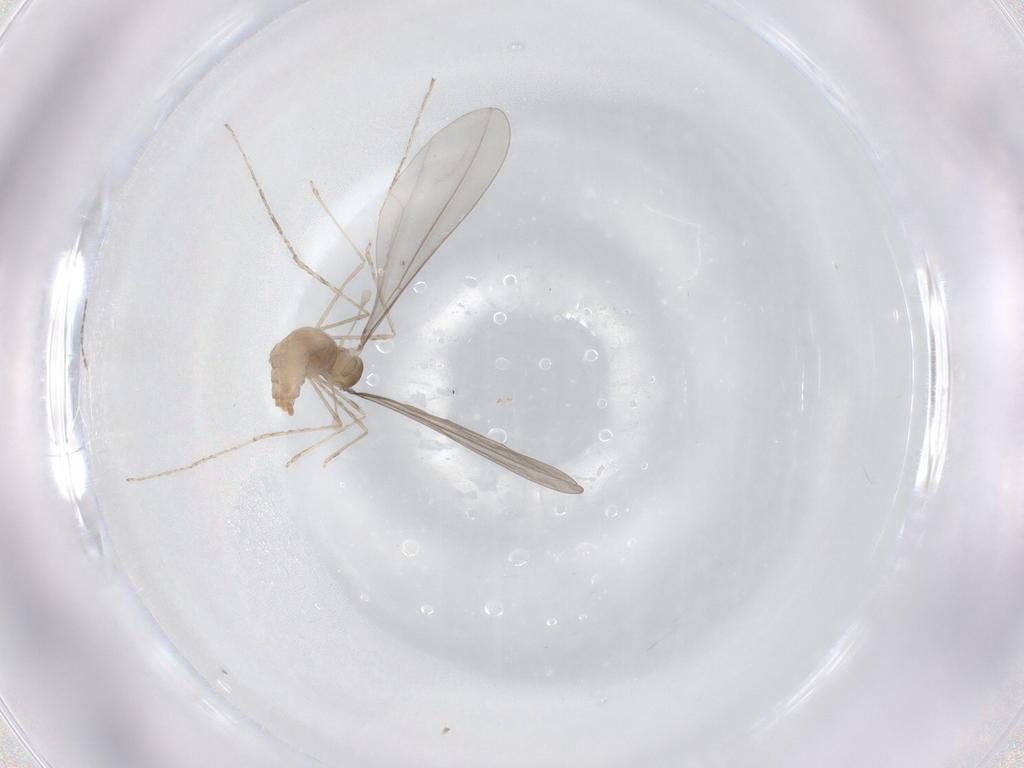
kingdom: Animalia
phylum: Arthropoda
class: Insecta
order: Diptera
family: Cecidomyiidae
